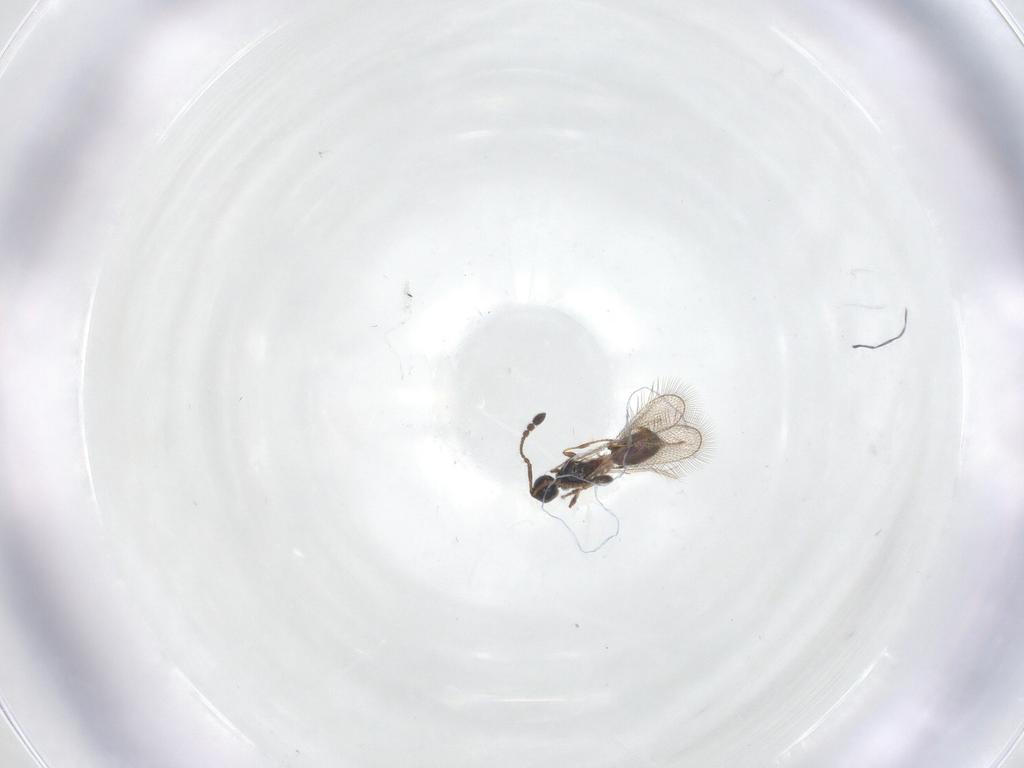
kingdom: Animalia
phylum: Arthropoda
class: Insecta
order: Hymenoptera
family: Diapriidae
